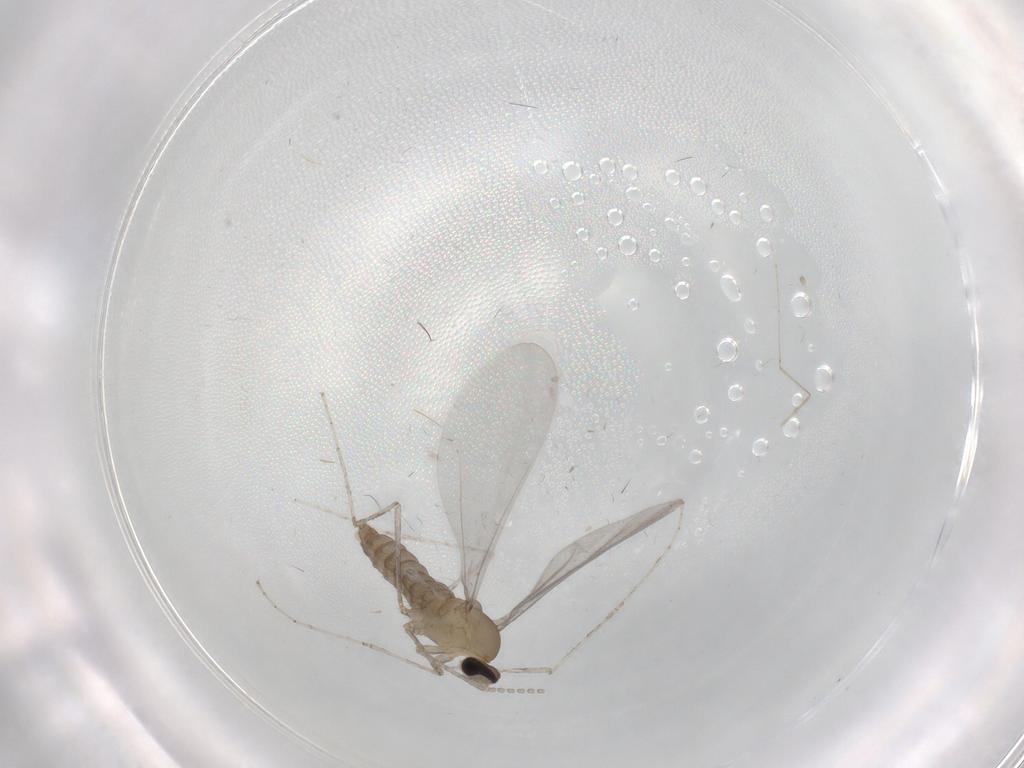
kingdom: Animalia
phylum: Arthropoda
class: Insecta
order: Diptera
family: Cecidomyiidae
